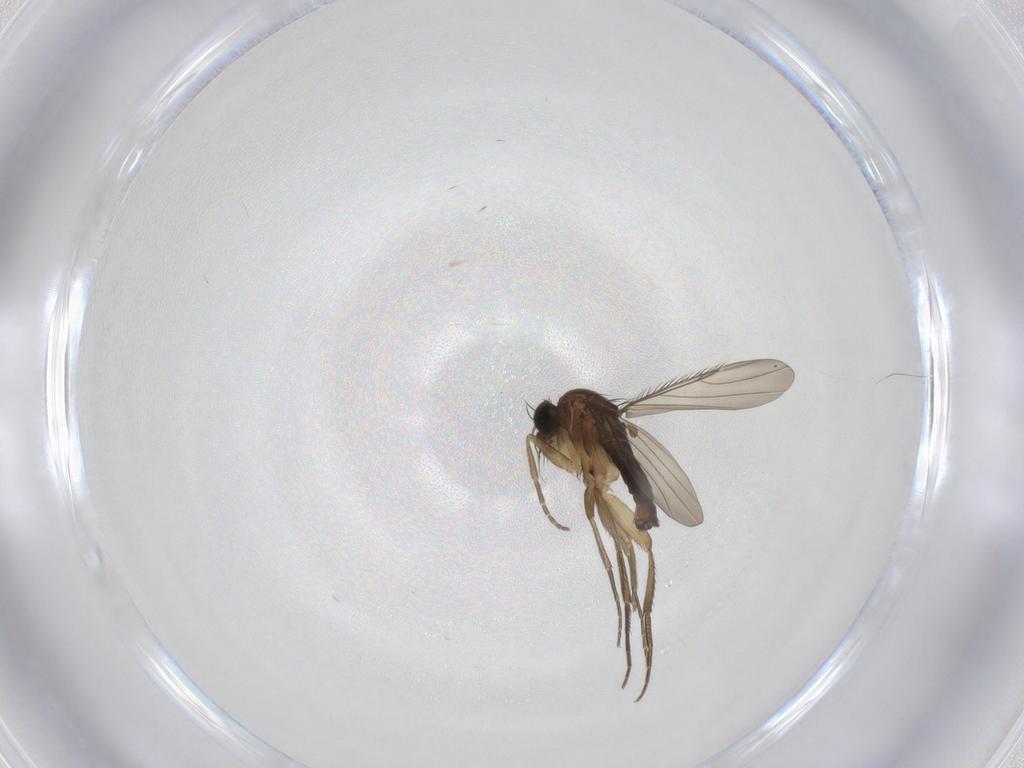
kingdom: Animalia
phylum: Arthropoda
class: Insecta
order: Diptera
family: Phoridae
